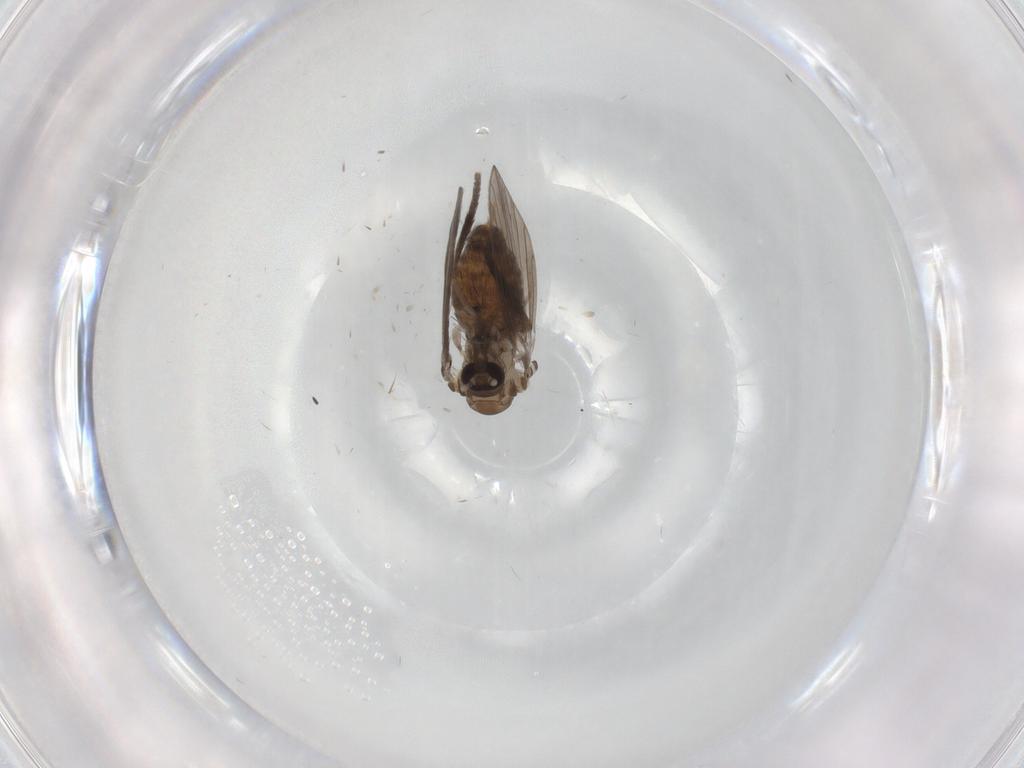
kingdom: Animalia
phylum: Arthropoda
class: Insecta
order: Diptera
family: Psychodidae
